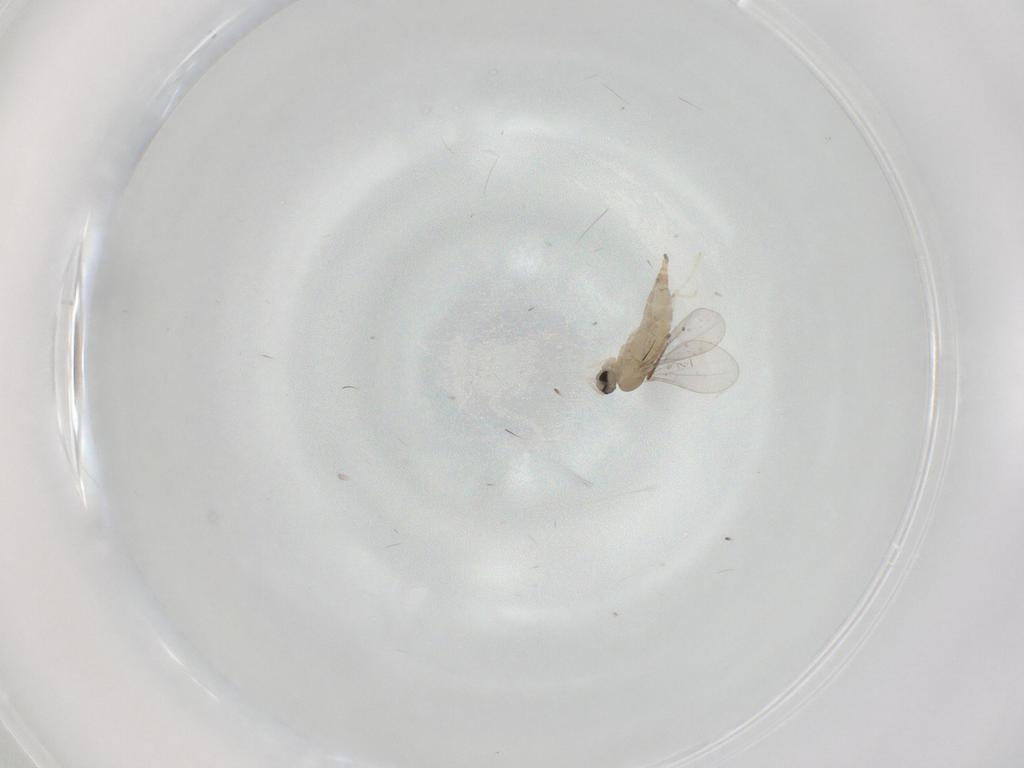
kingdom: Animalia
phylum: Arthropoda
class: Insecta
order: Diptera
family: Cecidomyiidae
